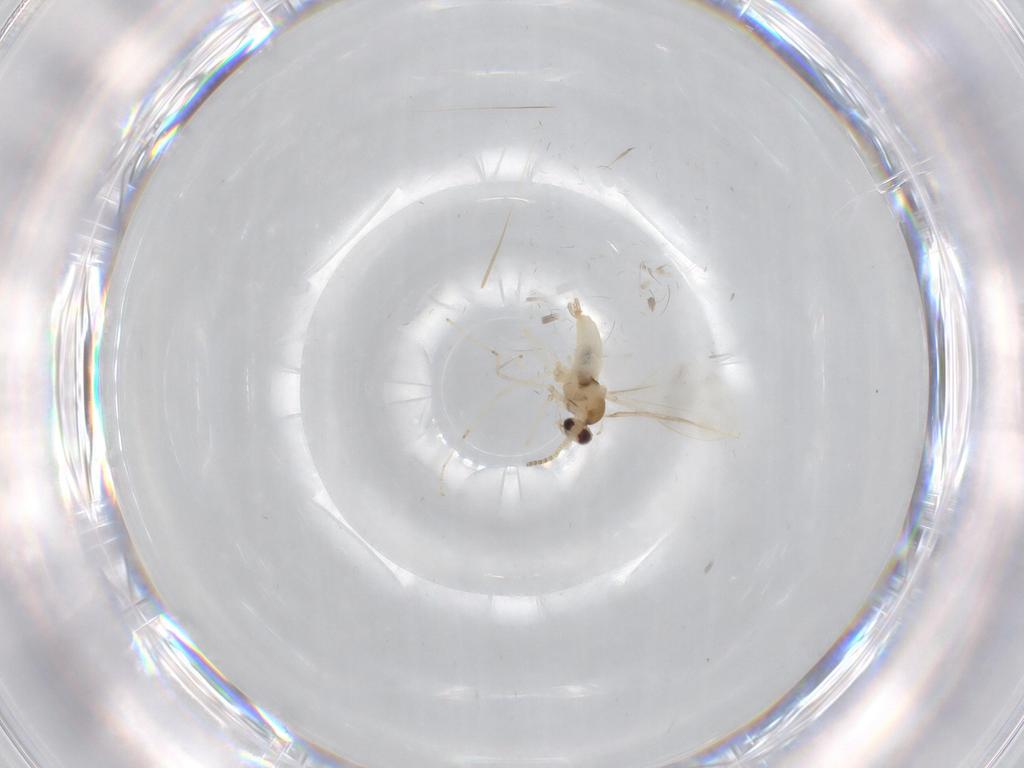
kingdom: Animalia
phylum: Arthropoda
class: Insecta
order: Diptera
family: Cecidomyiidae
